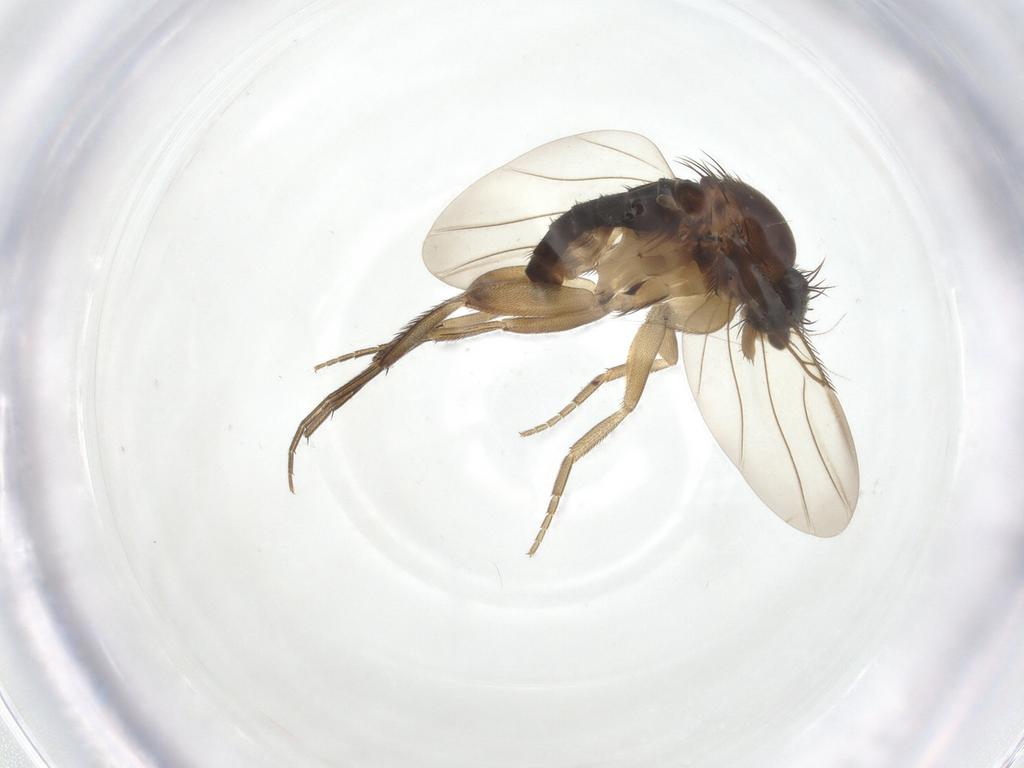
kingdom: Animalia
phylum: Arthropoda
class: Insecta
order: Diptera
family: Phoridae
